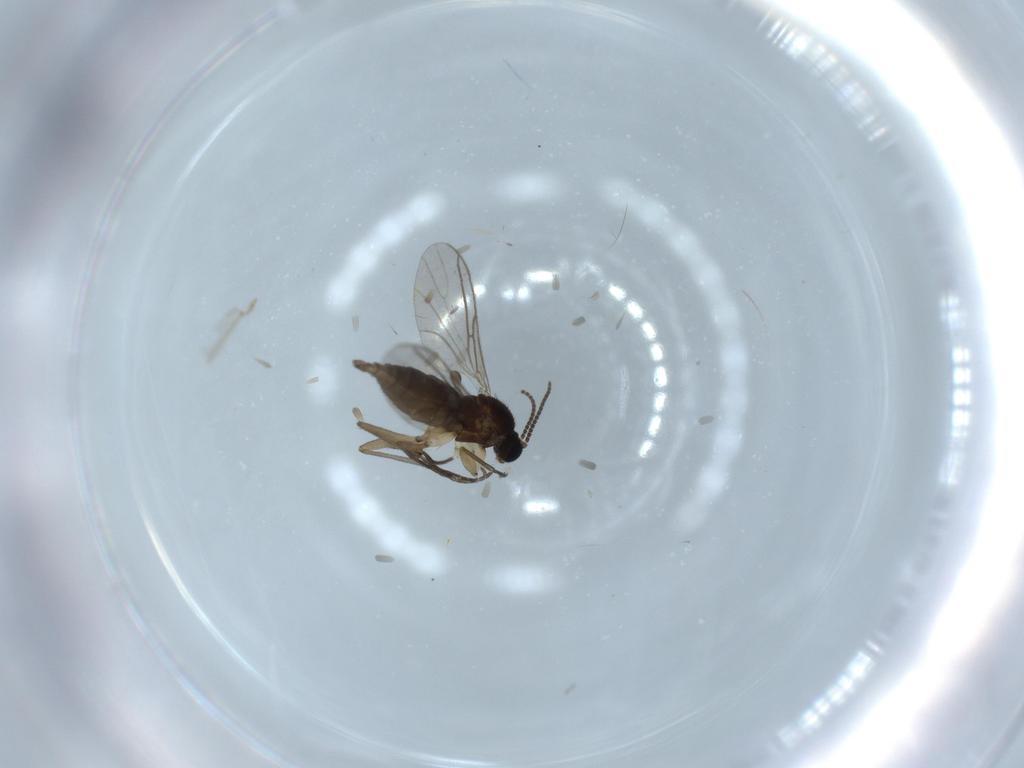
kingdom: Animalia
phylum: Arthropoda
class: Insecta
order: Diptera
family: Sciaridae
